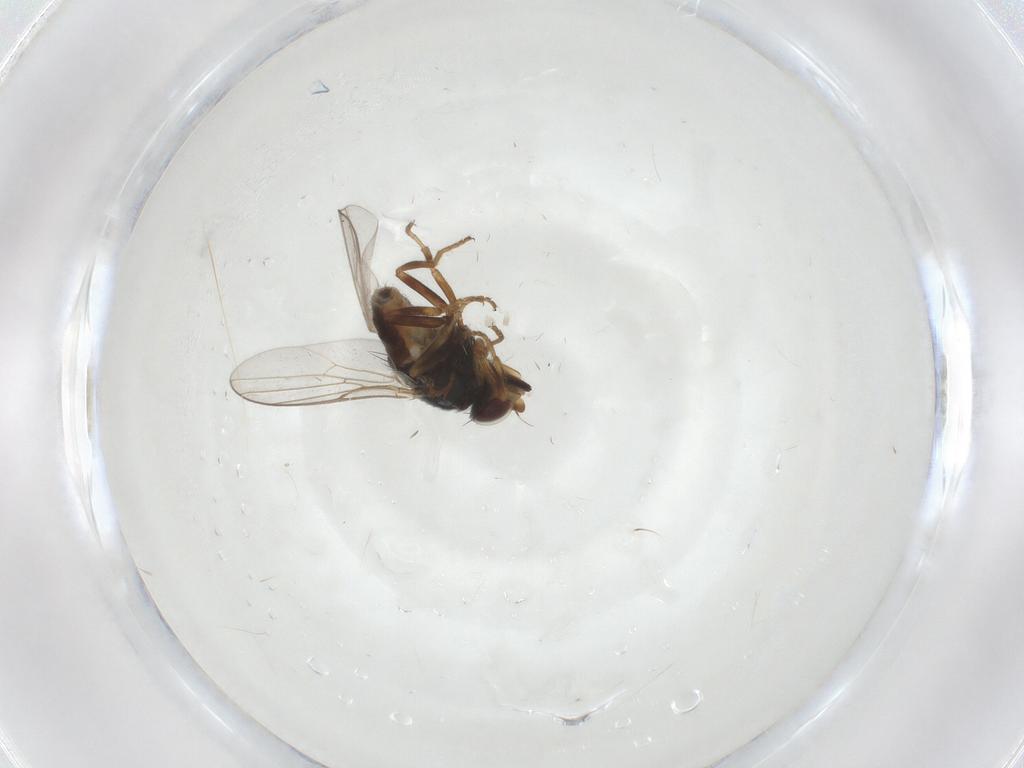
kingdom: Animalia
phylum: Arthropoda
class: Insecta
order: Diptera
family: Chloropidae
